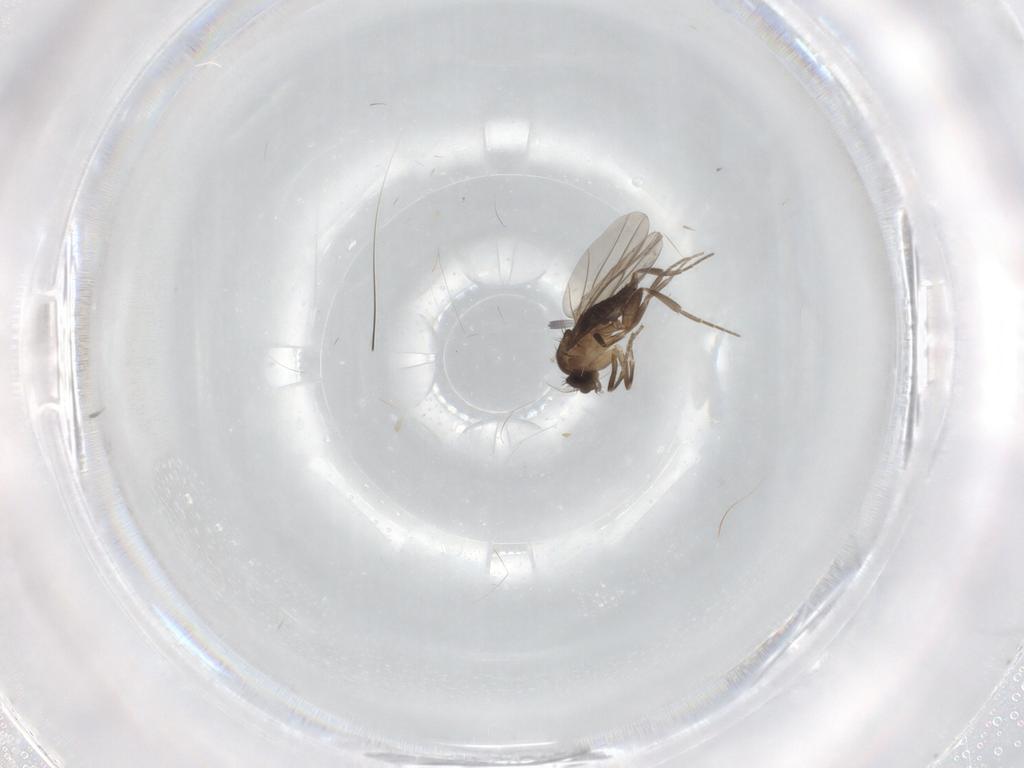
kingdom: Animalia
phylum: Arthropoda
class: Insecta
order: Diptera
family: Phoridae
